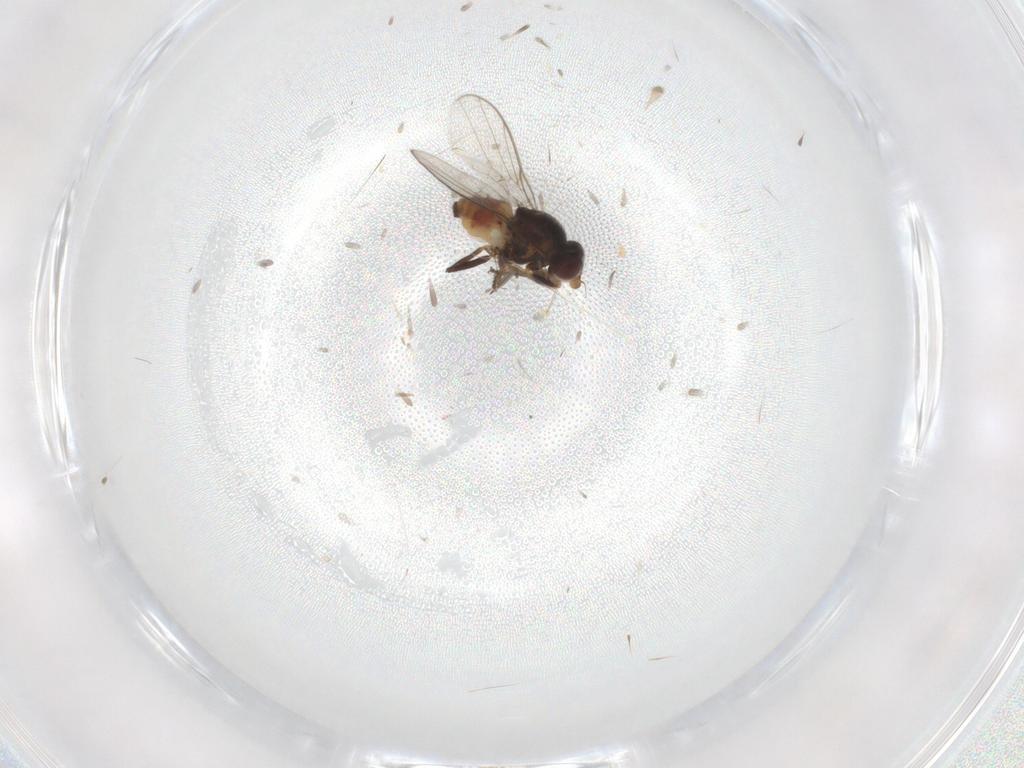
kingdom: Animalia
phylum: Arthropoda
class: Insecta
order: Diptera
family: Chloropidae
